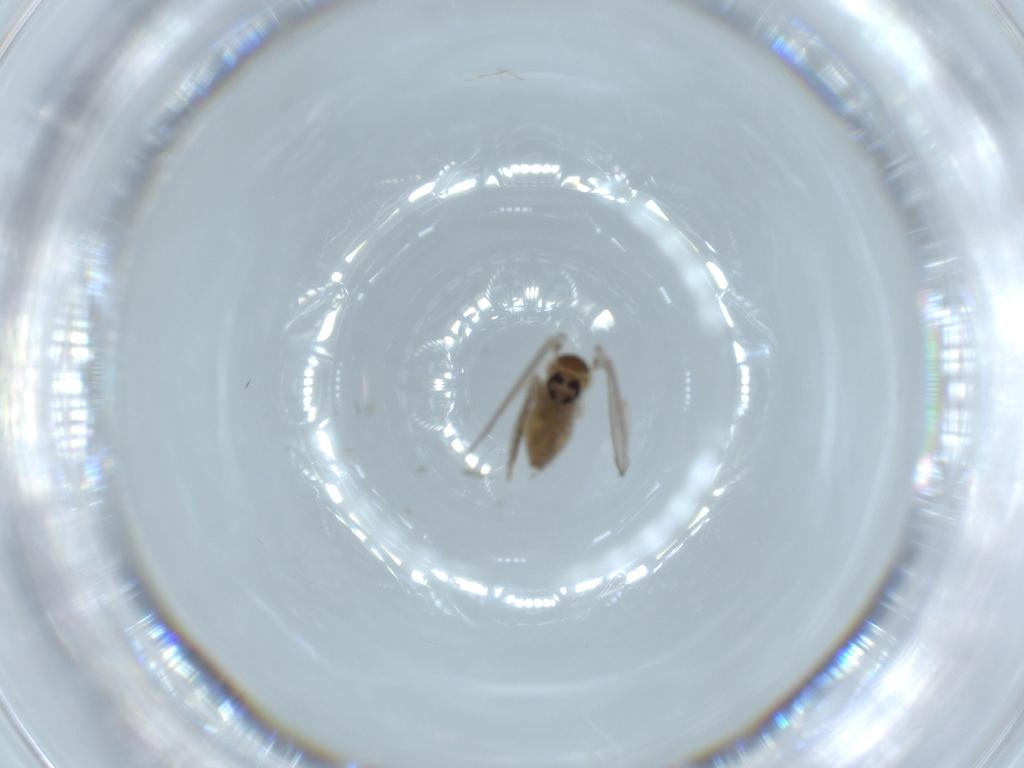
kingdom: Animalia
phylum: Arthropoda
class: Insecta
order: Diptera
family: Psychodidae
